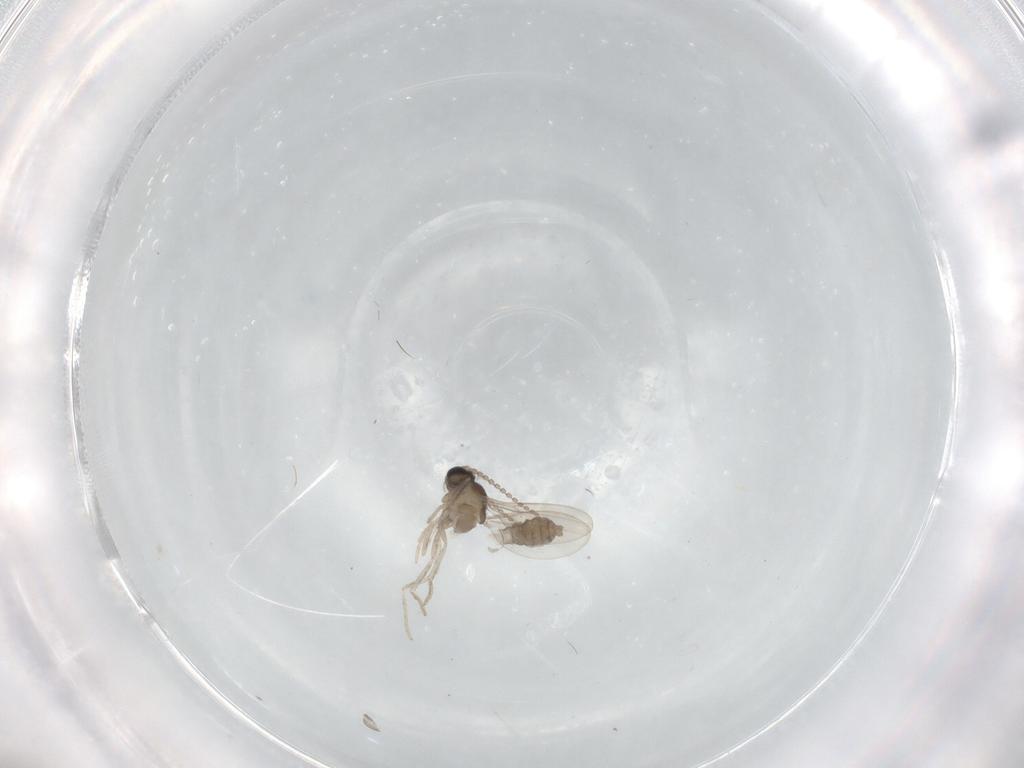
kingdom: Animalia
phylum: Arthropoda
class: Insecta
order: Diptera
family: Cecidomyiidae
